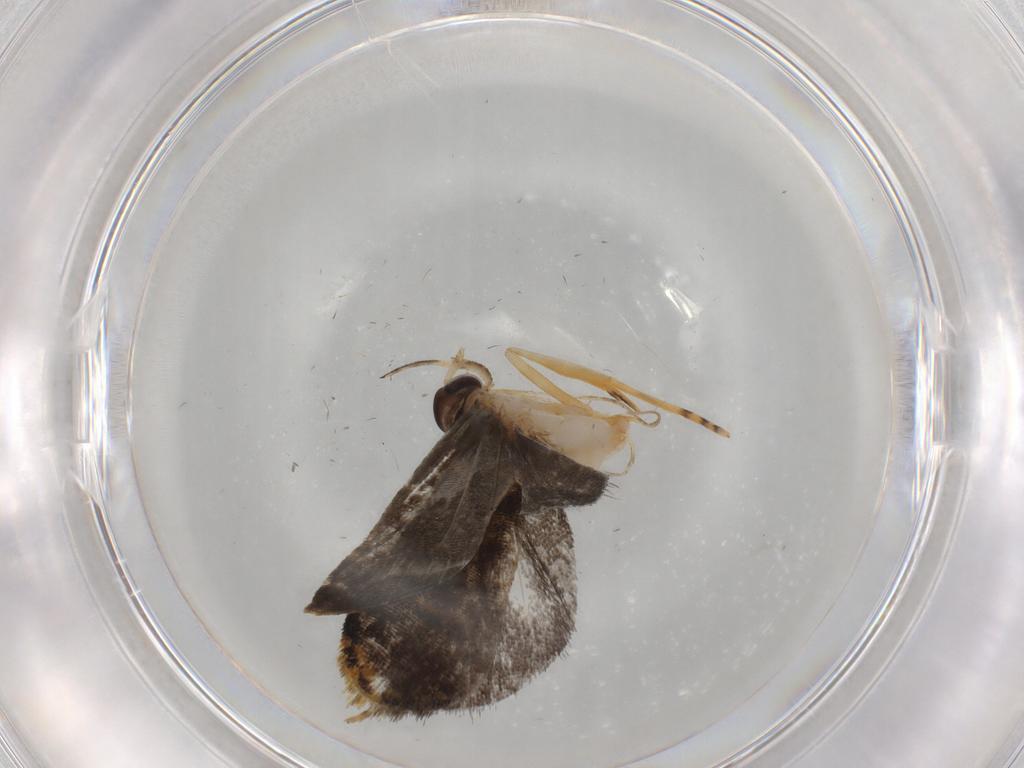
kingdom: Animalia
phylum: Arthropoda
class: Insecta
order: Lepidoptera
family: Cosmopterigidae
